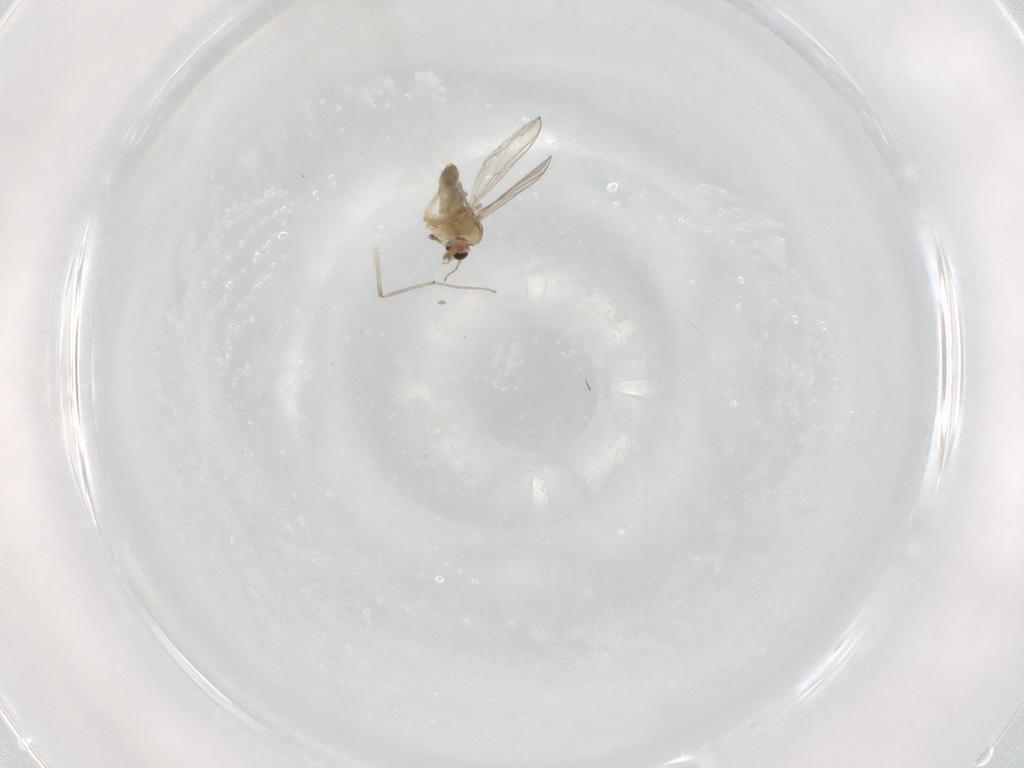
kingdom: Animalia
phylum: Arthropoda
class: Insecta
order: Diptera
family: Chironomidae
